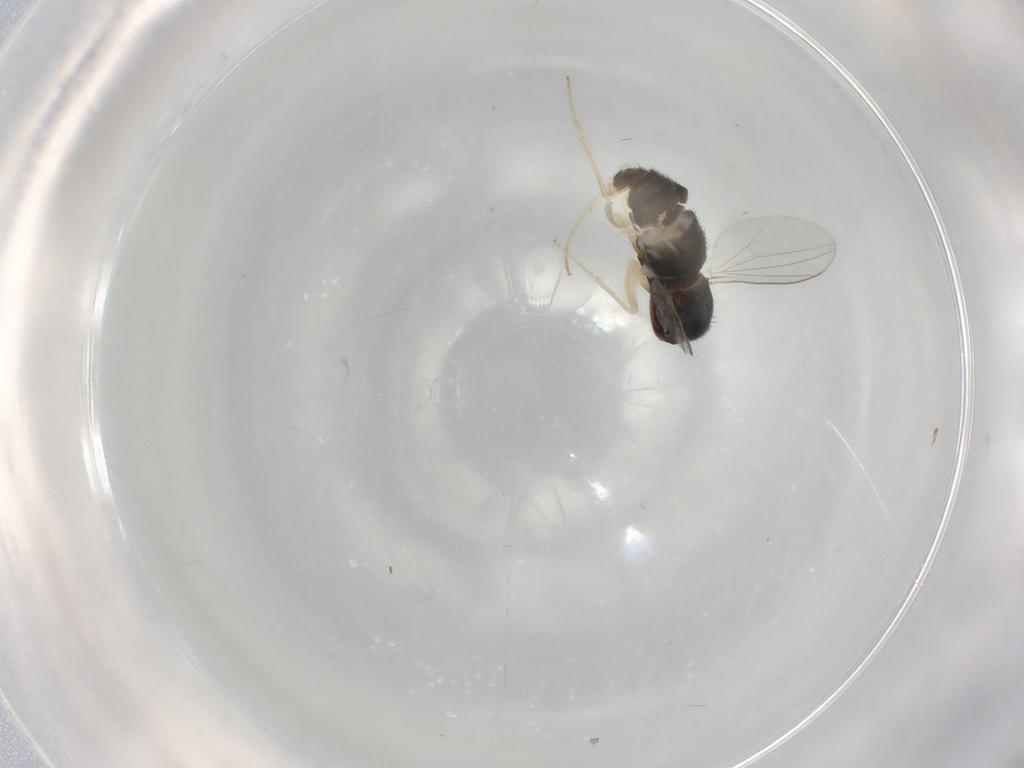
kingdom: Animalia
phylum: Arthropoda
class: Insecta
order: Diptera
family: Dolichopodidae
